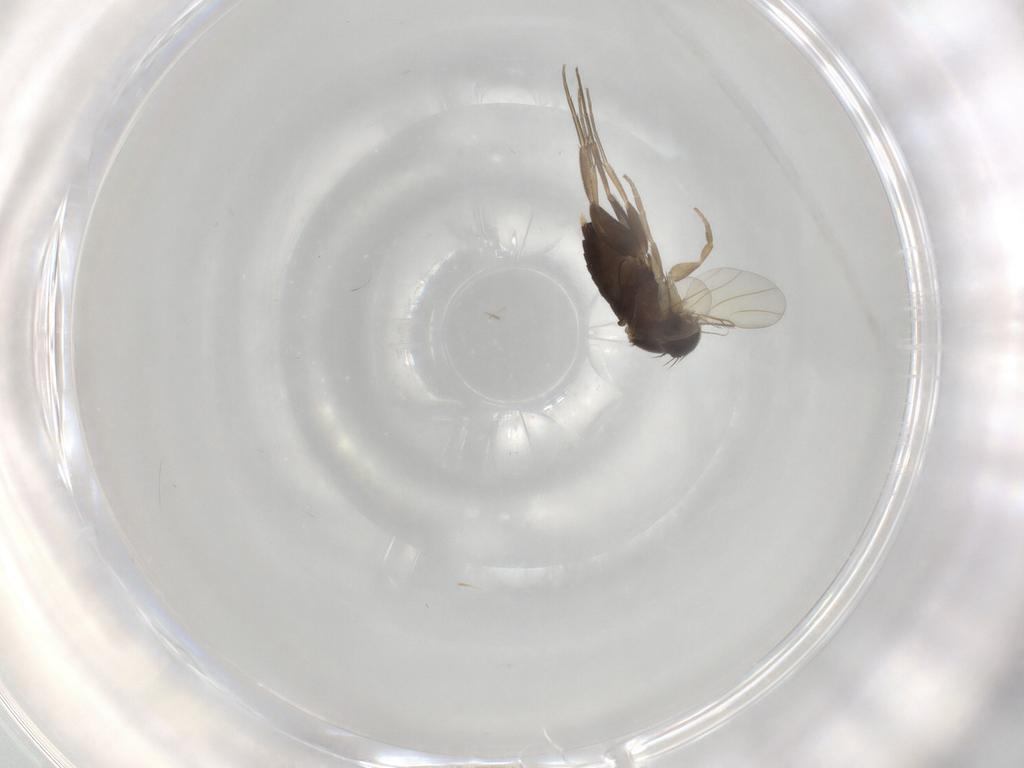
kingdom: Animalia
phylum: Arthropoda
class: Insecta
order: Diptera
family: Phoridae
